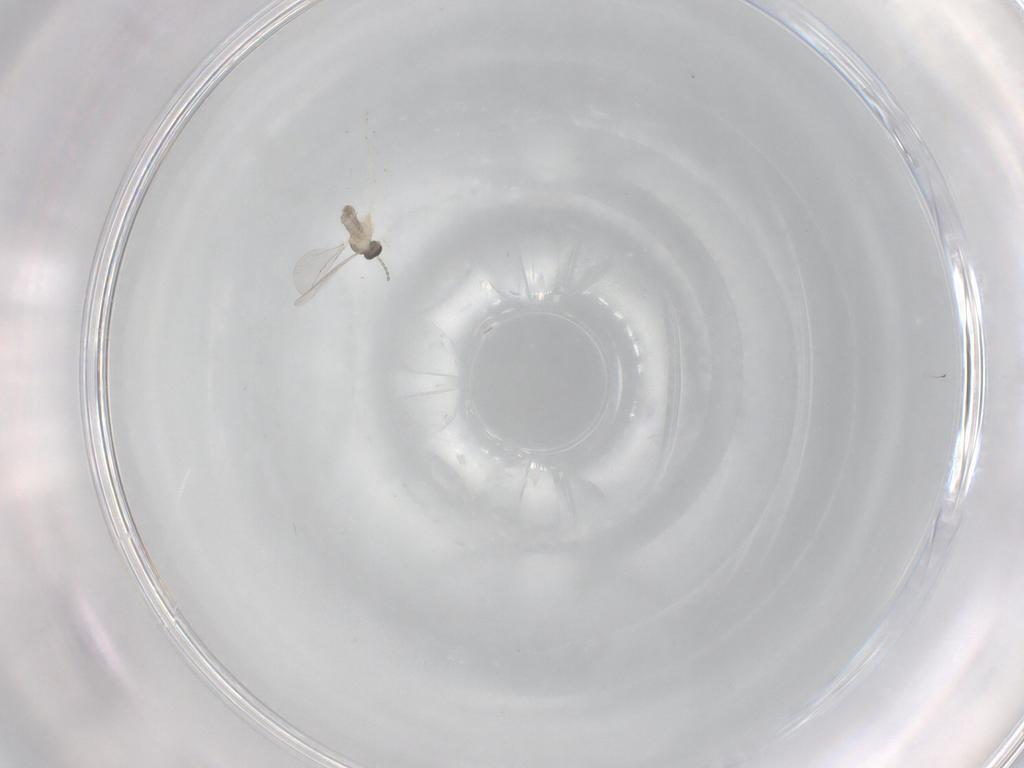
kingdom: Animalia
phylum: Arthropoda
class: Insecta
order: Diptera
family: Cecidomyiidae
